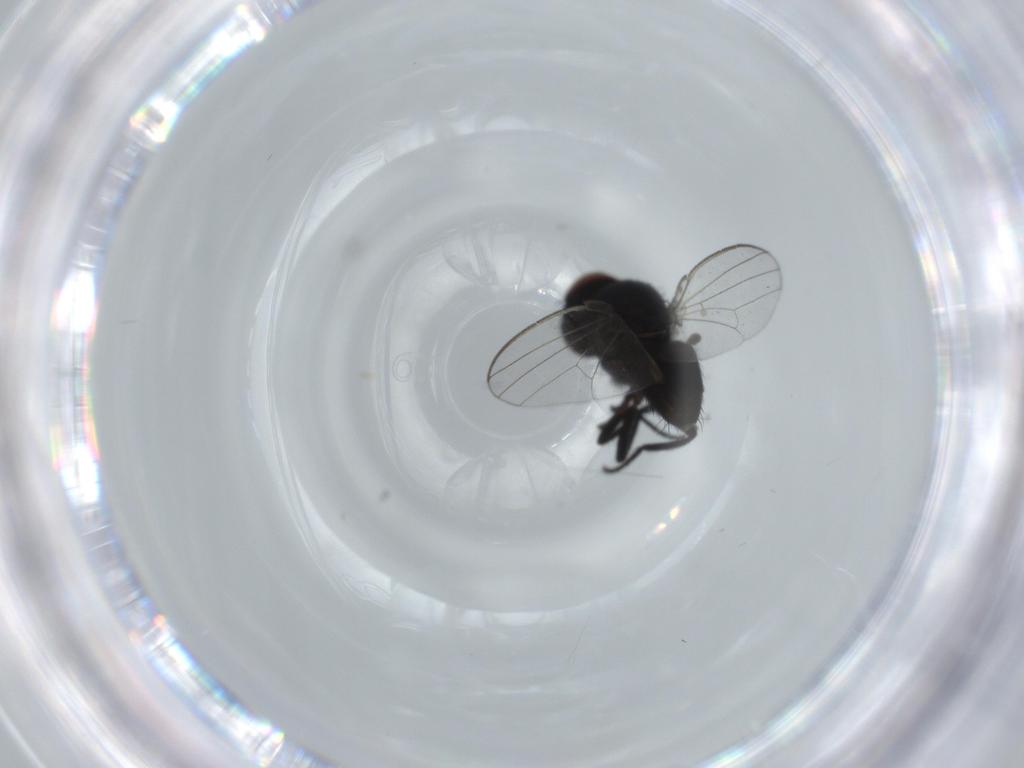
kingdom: Animalia
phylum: Arthropoda
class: Insecta
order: Diptera
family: Milichiidae
